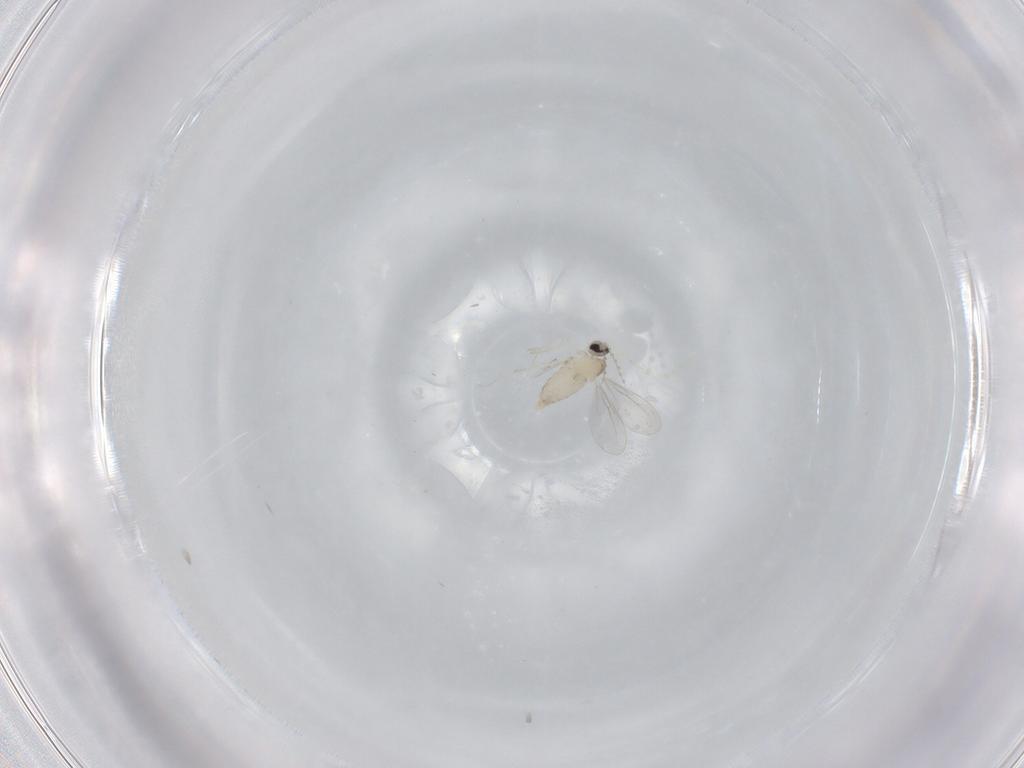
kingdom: Animalia
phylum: Arthropoda
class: Insecta
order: Diptera
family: Cecidomyiidae
